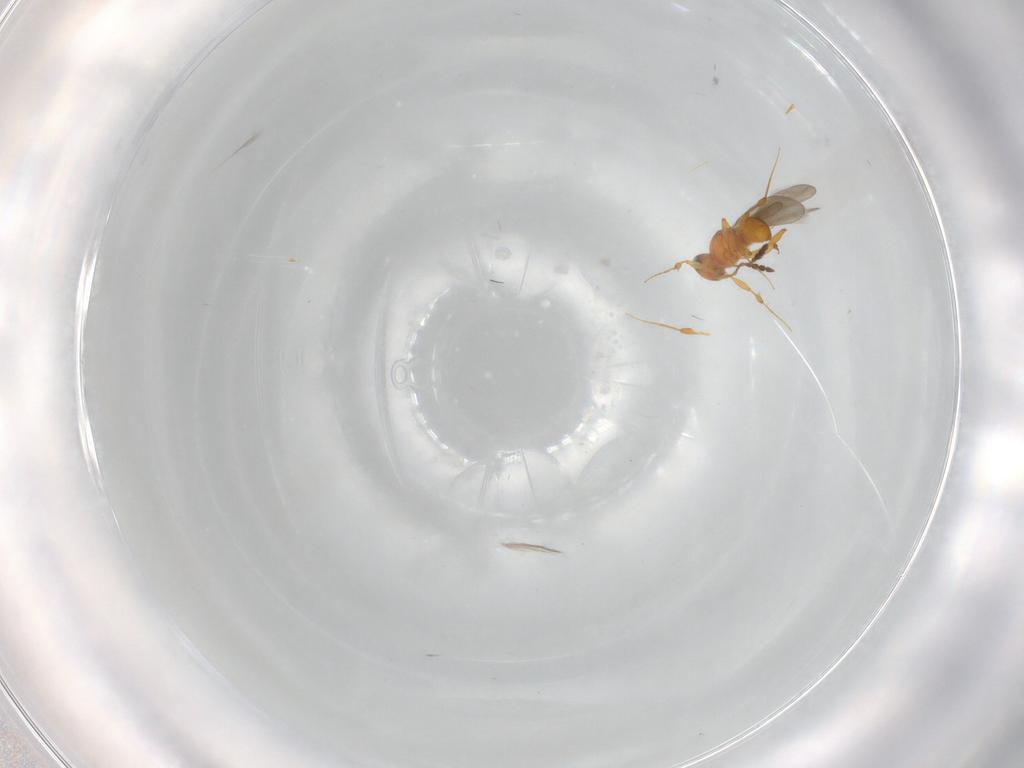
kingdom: Animalia
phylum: Arthropoda
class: Insecta
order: Hymenoptera
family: Platygastridae
